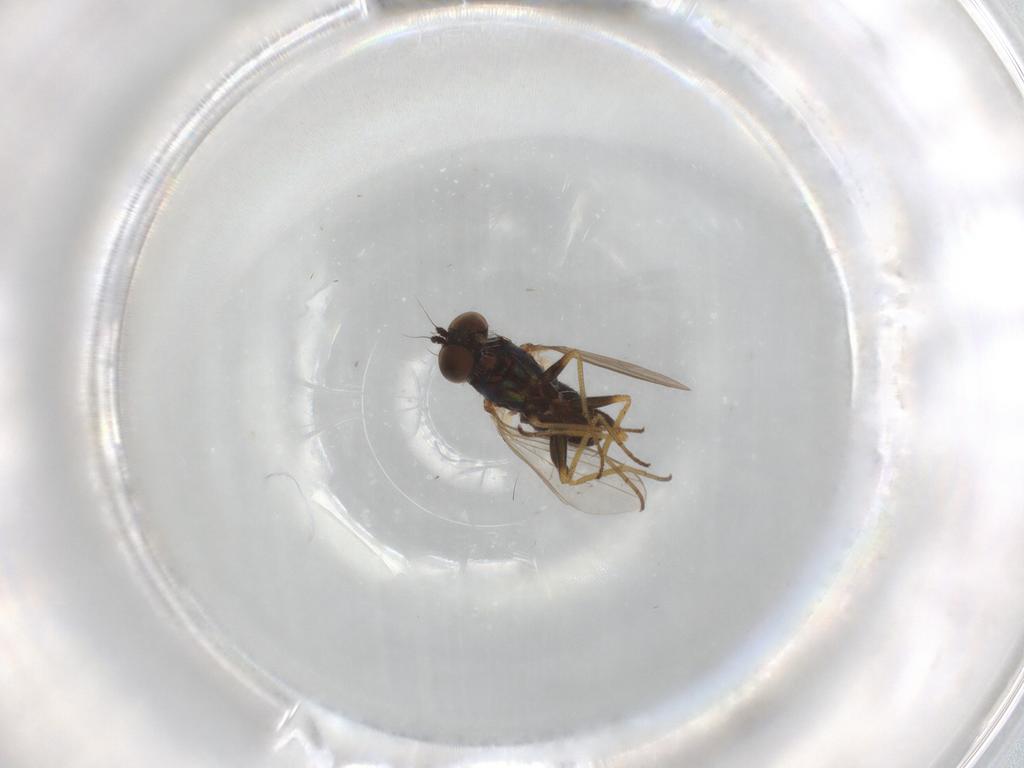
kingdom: Animalia
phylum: Arthropoda
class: Insecta
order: Diptera
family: Dolichopodidae
